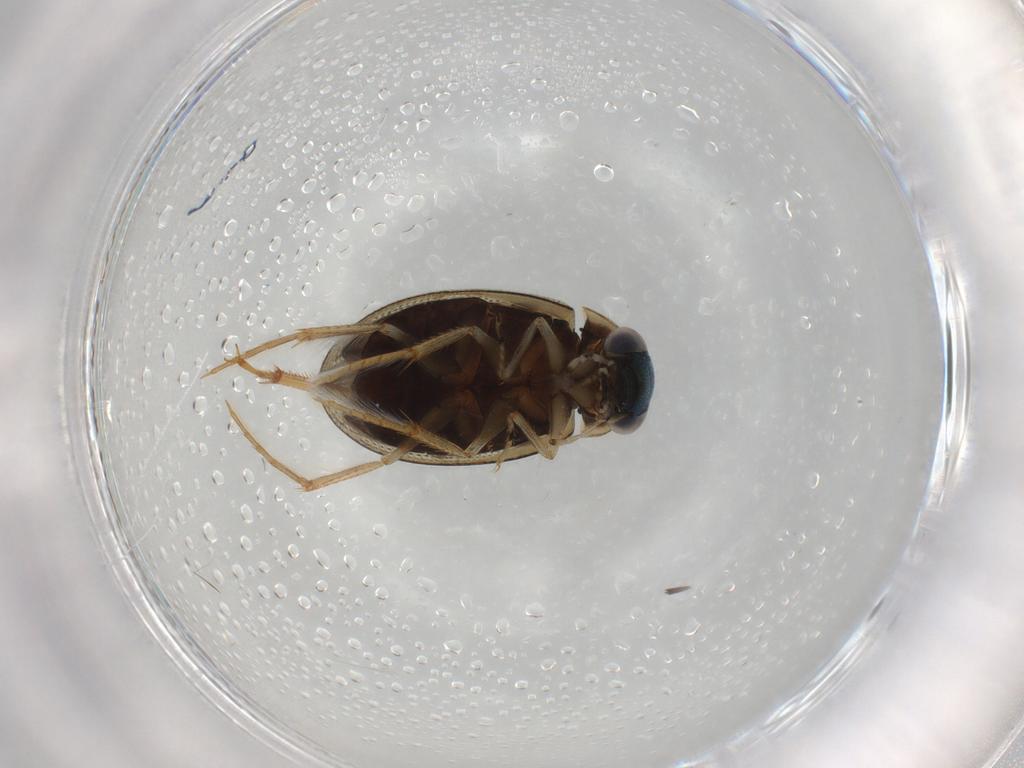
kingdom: Animalia
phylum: Arthropoda
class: Insecta
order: Coleoptera
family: Hydrophilidae
